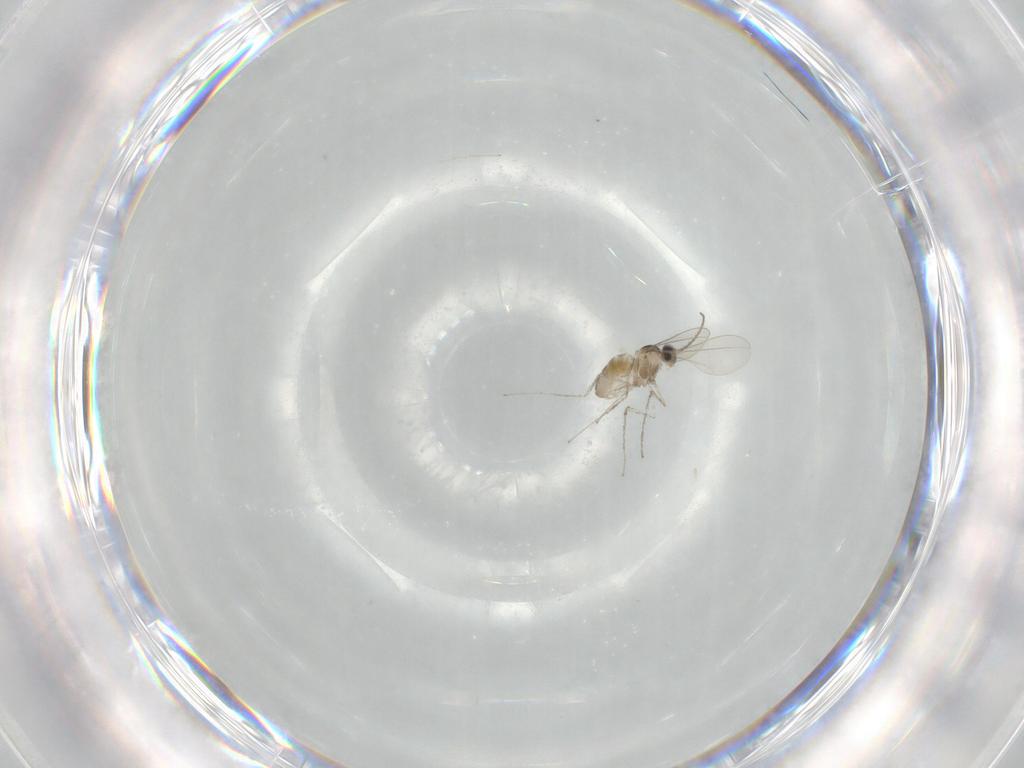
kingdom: Animalia
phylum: Arthropoda
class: Insecta
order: Diptera
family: Cecidomyiidae
